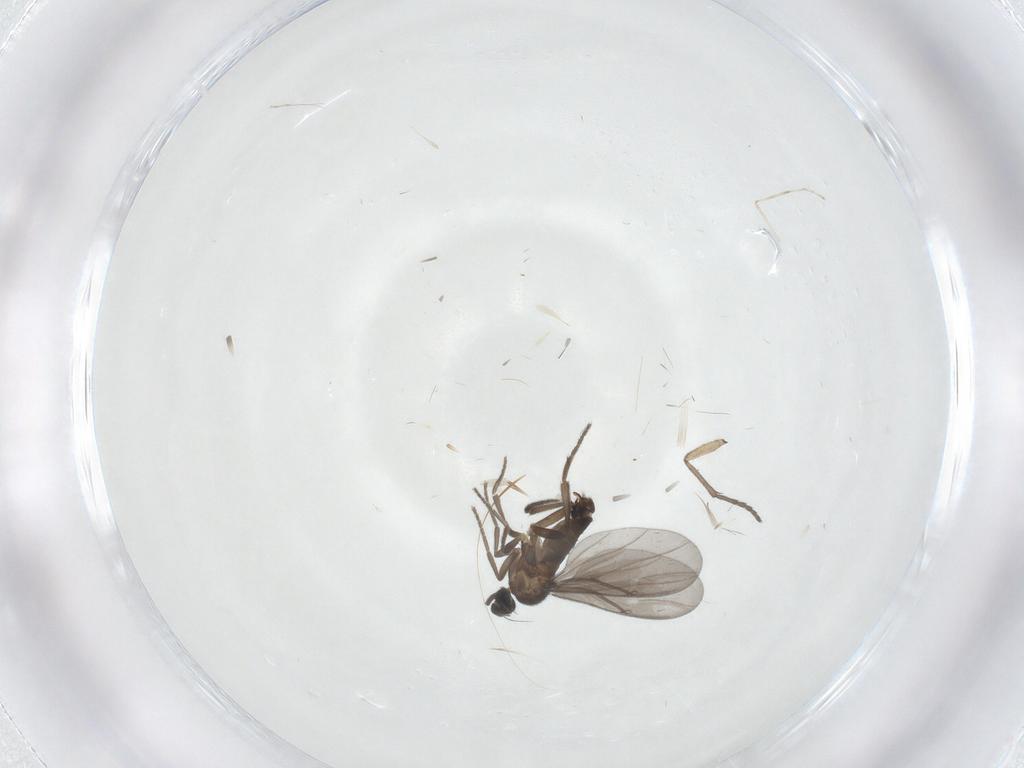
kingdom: Animalia
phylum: Arthropoda
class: Insecta
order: Diptera
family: Phoridae
